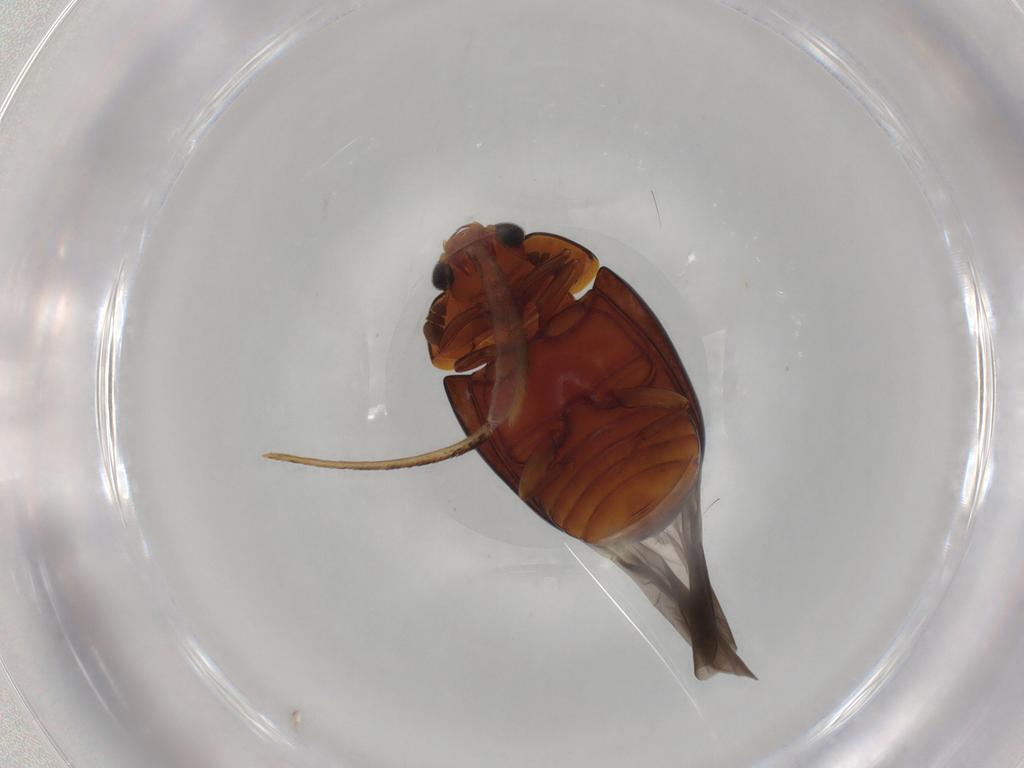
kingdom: Animalia
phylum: Arthropoda
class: Insecta
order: Coleoptera
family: Nitidulidae
